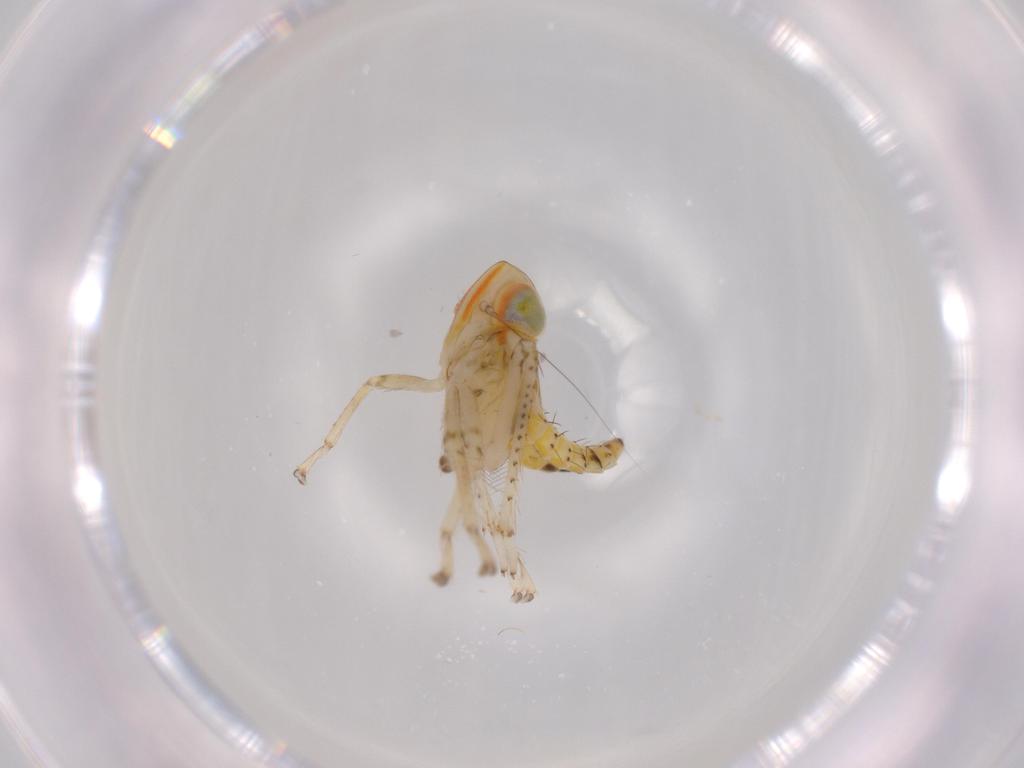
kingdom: Animalia
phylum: Arthropoda
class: Insecta
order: Hemiptera
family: Cicadellidae
